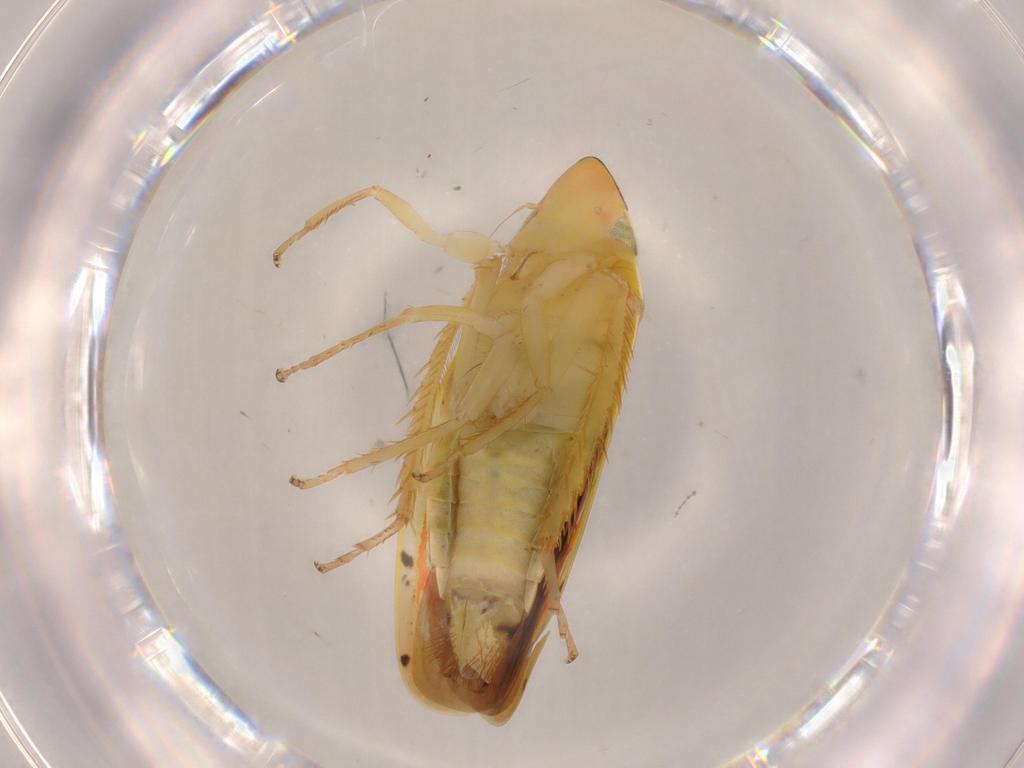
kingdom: Animalia
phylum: Arthropoda
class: Insecta
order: Hemiptera
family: Cicadellidae
